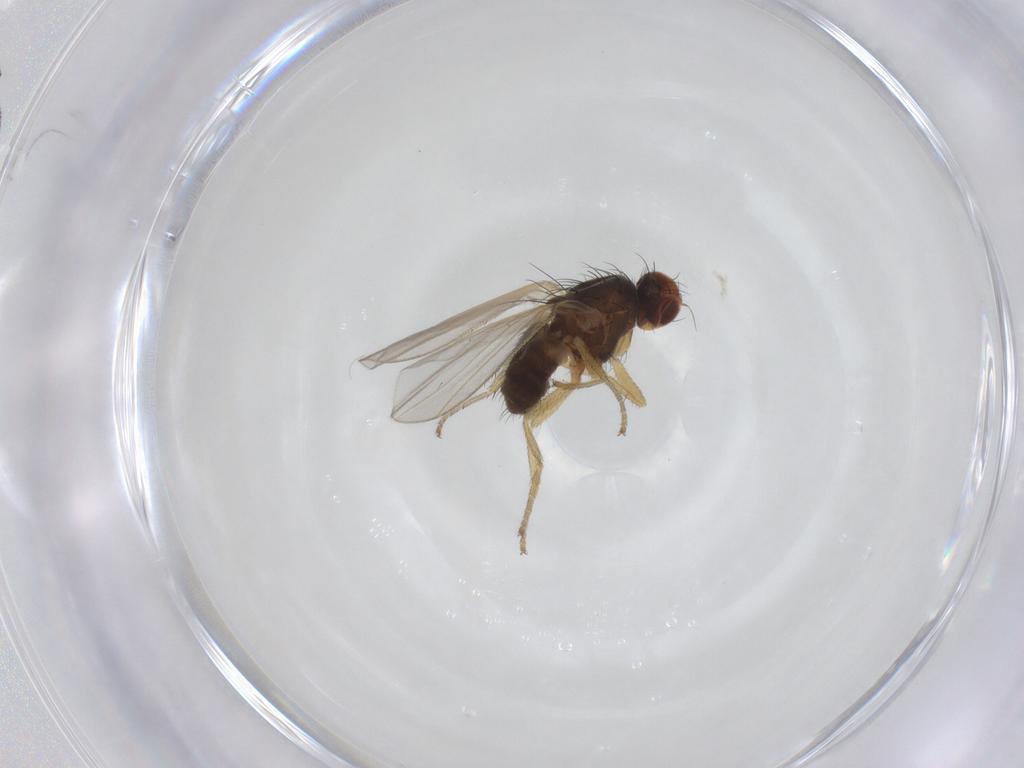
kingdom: Animalia
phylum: Arthropoda
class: Insecta
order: Diptera
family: Heleomyzidae
